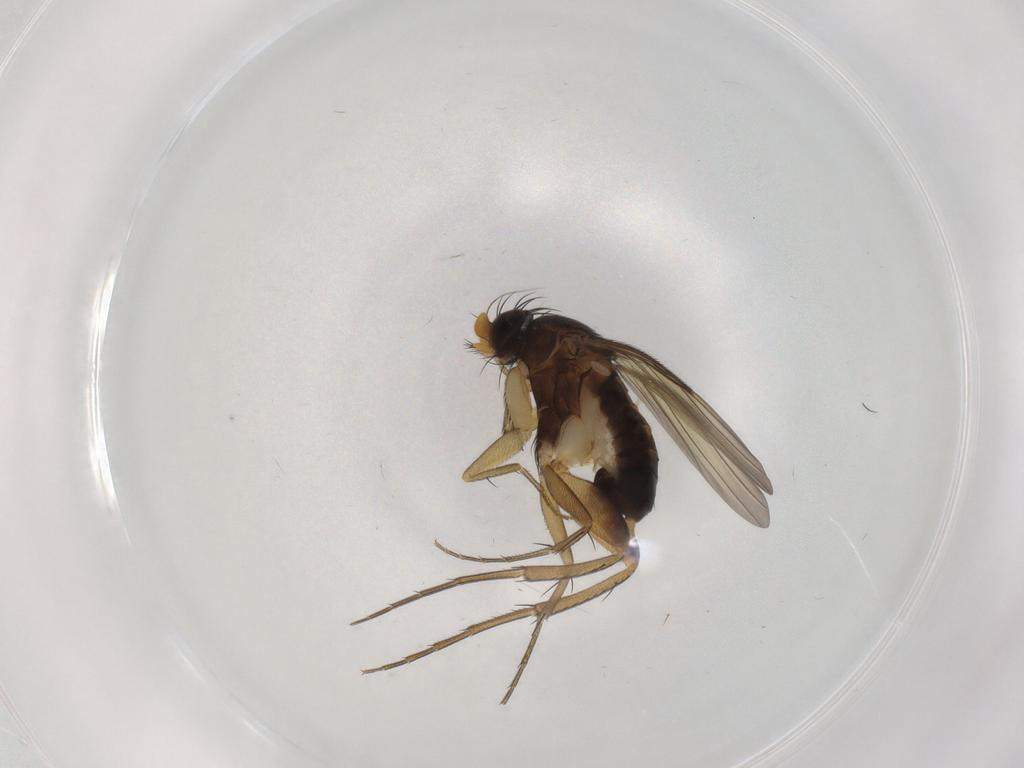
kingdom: Animalia
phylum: Arthropoda
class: Insecta
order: Diptera
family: Phoridae
